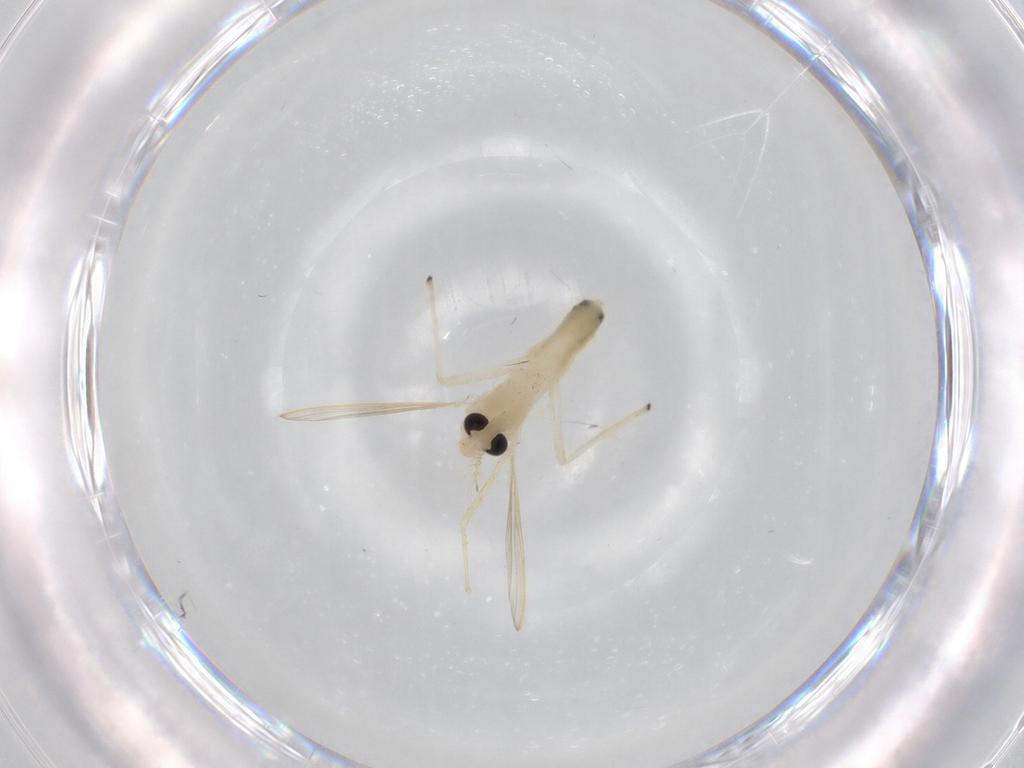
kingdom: Animalia
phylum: Arthropoda
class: Insecta
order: Diptera
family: Chironomidae
